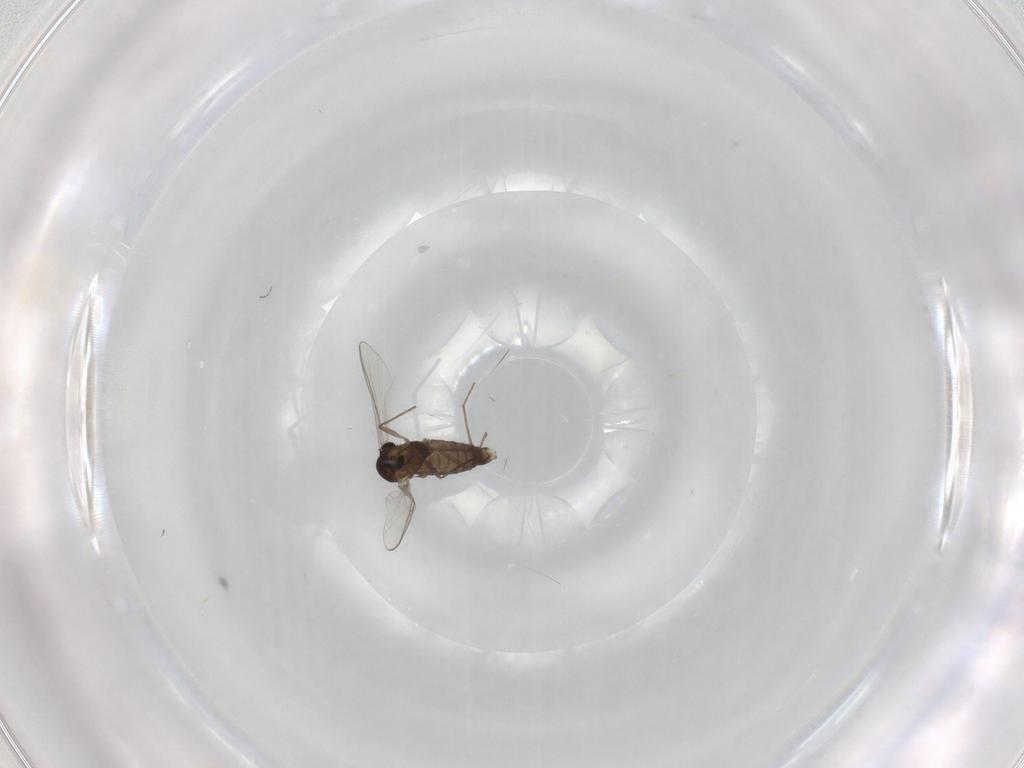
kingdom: Animalia
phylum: Arthropoda
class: Insecta
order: Diptera
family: Chironomidae
